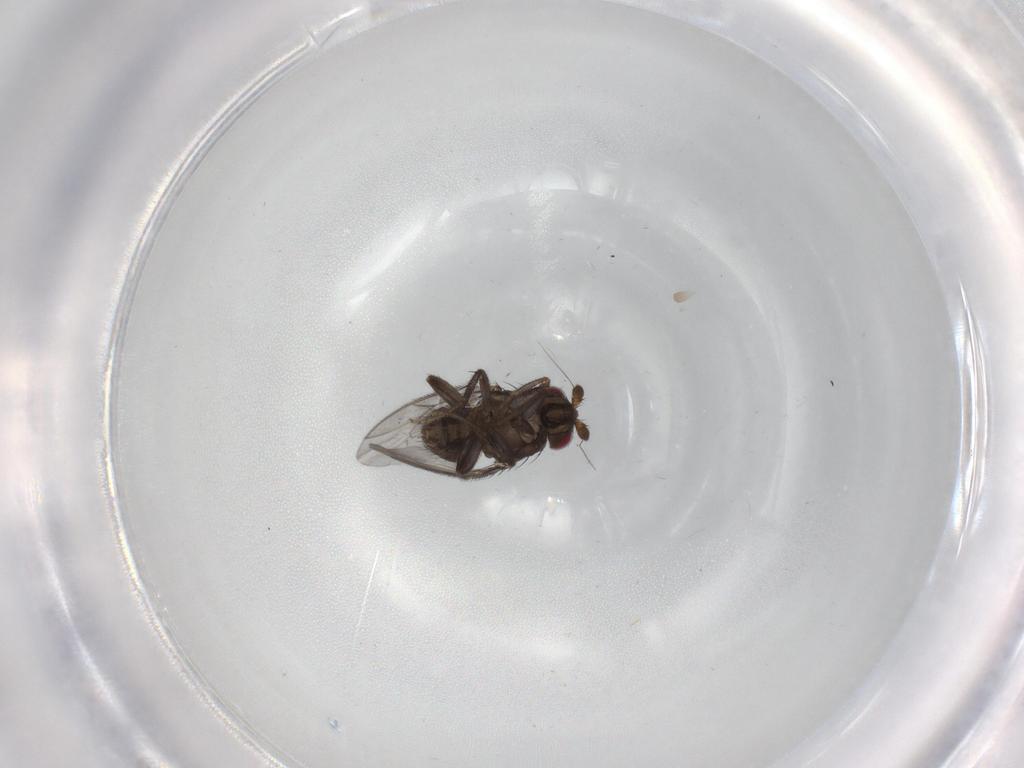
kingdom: Animalia
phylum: Arthropoda
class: Insecta
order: Diptera
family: Sphaeroceridae
